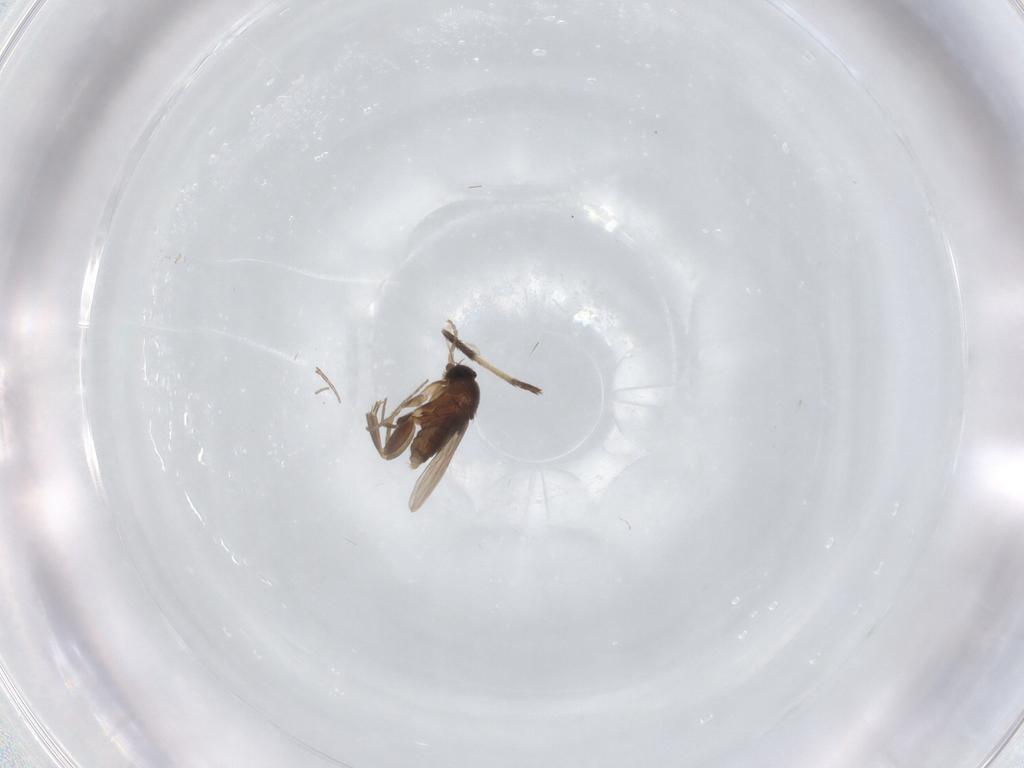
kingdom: Animalia
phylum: Arthropoda
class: Insecta
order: Diptera
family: Phoridae
